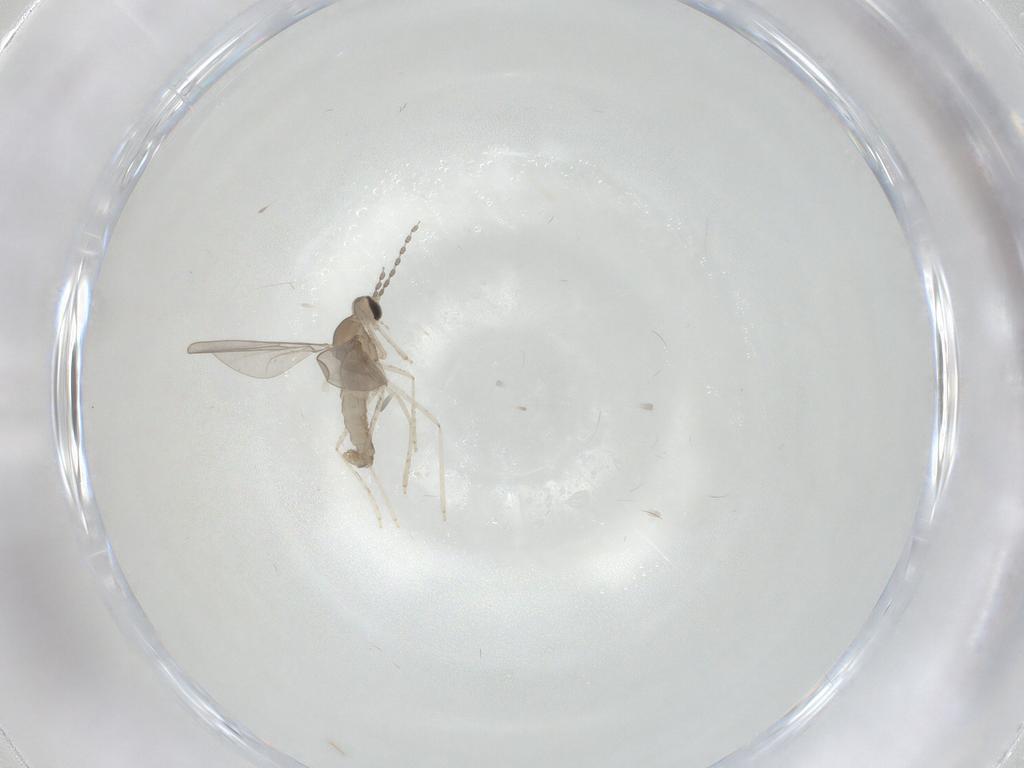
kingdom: Animalia
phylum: Arthropoda
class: Insecta
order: Diptera
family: Cecidomyiidae
